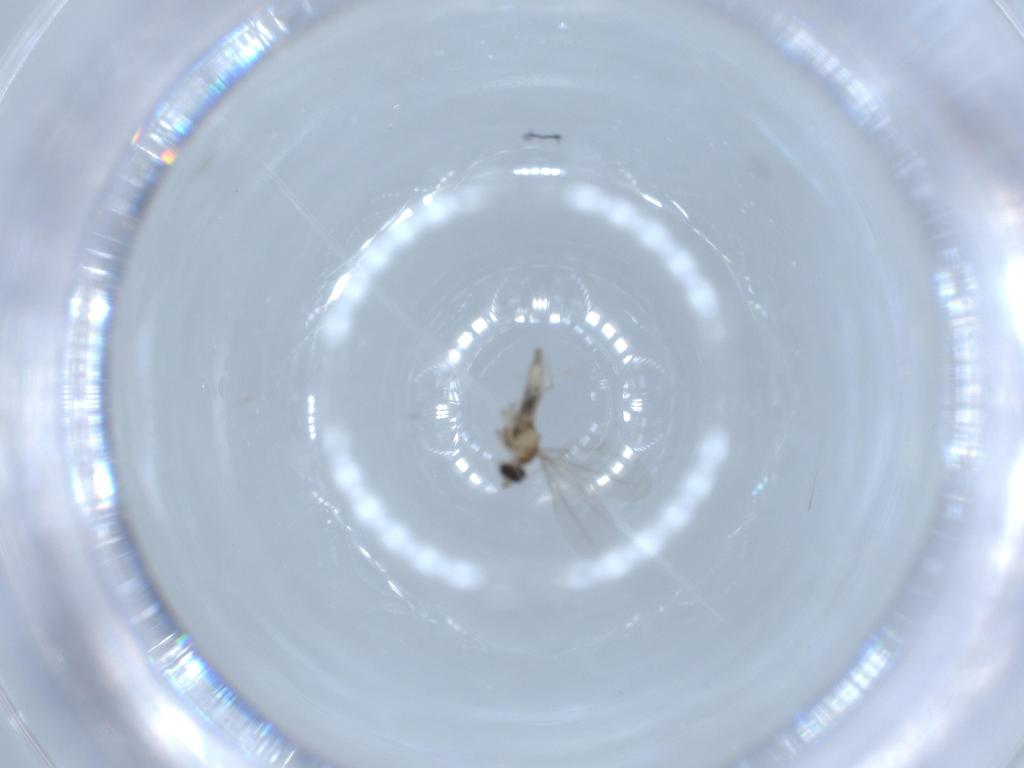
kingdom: Animalia
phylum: Arthropoda
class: Insecta
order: Diptera
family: Cecidomyiidae
